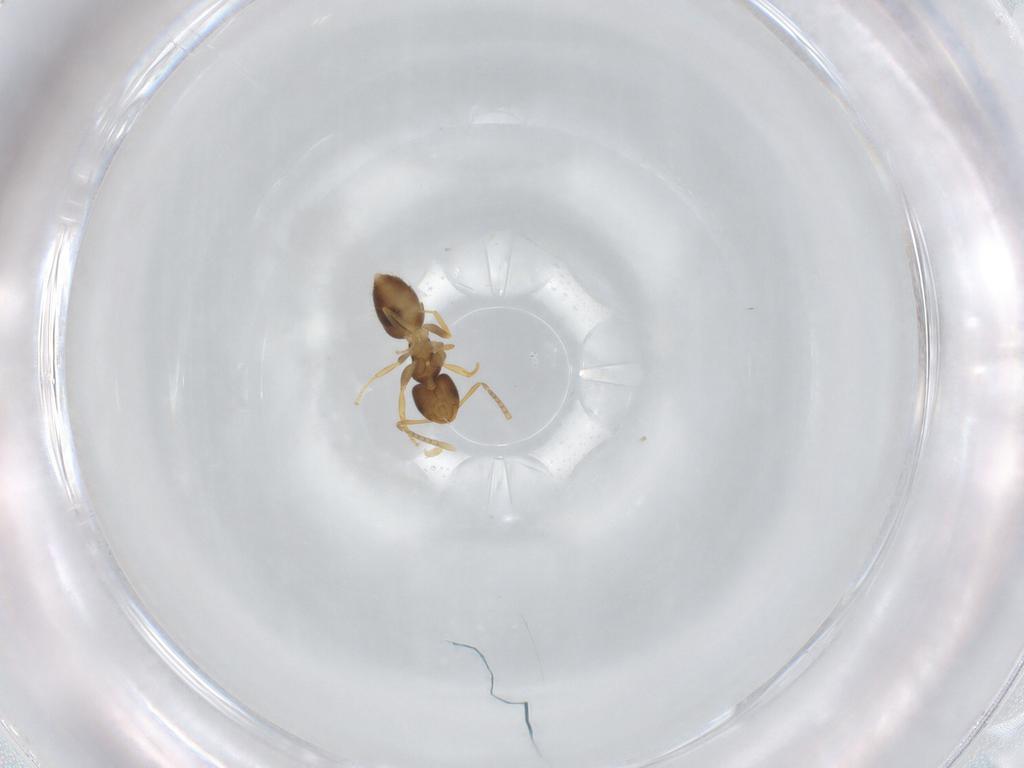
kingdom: Animalia
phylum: Arthropoda
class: Insecta
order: Hymenoptera
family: Formicidae
